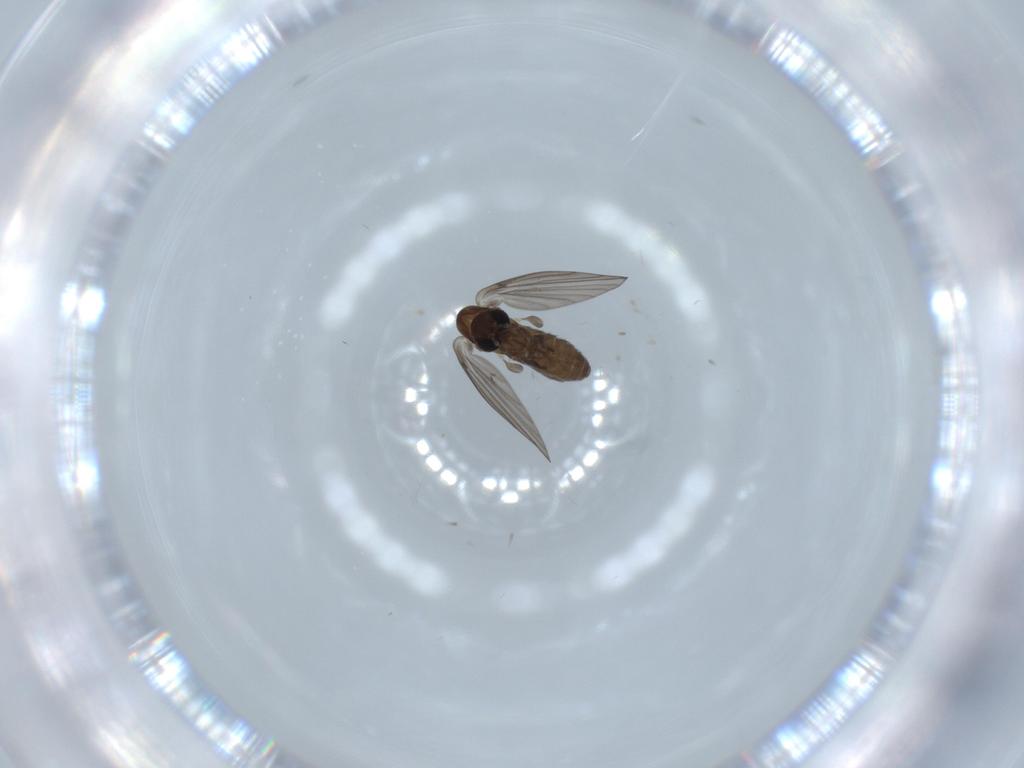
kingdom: Animalia
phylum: Arthropoda
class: Insecta
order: Diptera
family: Psychodidae
